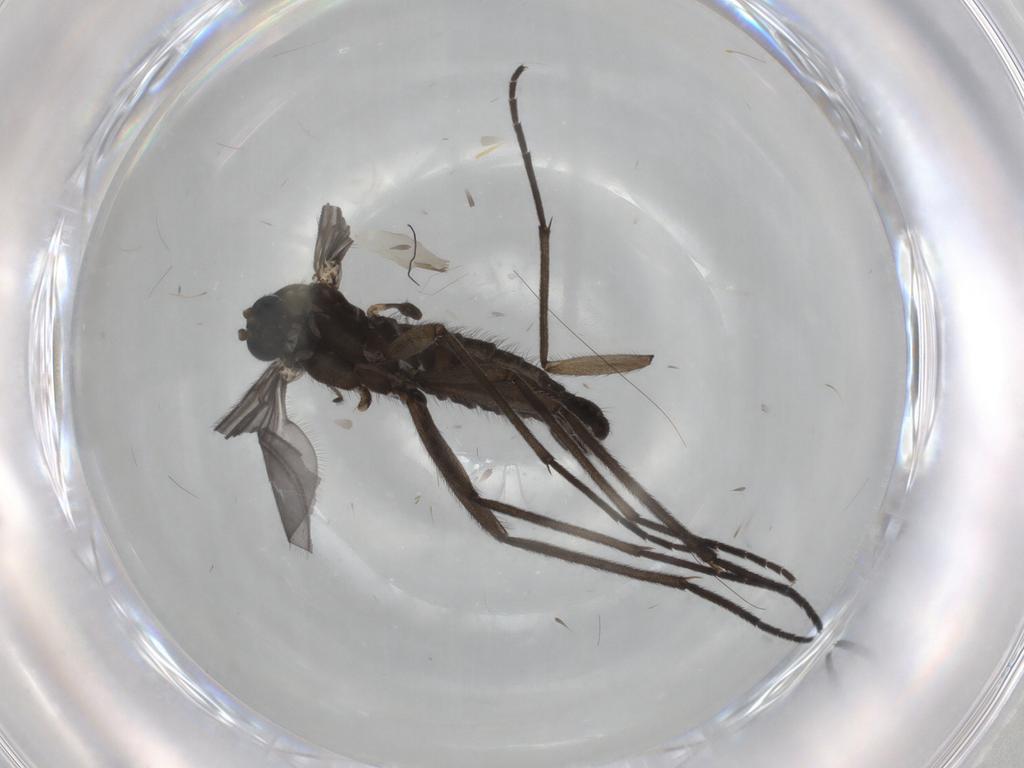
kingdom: Animalia
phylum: Arthropoda
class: Insecta
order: Diptera
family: Sciaridae
